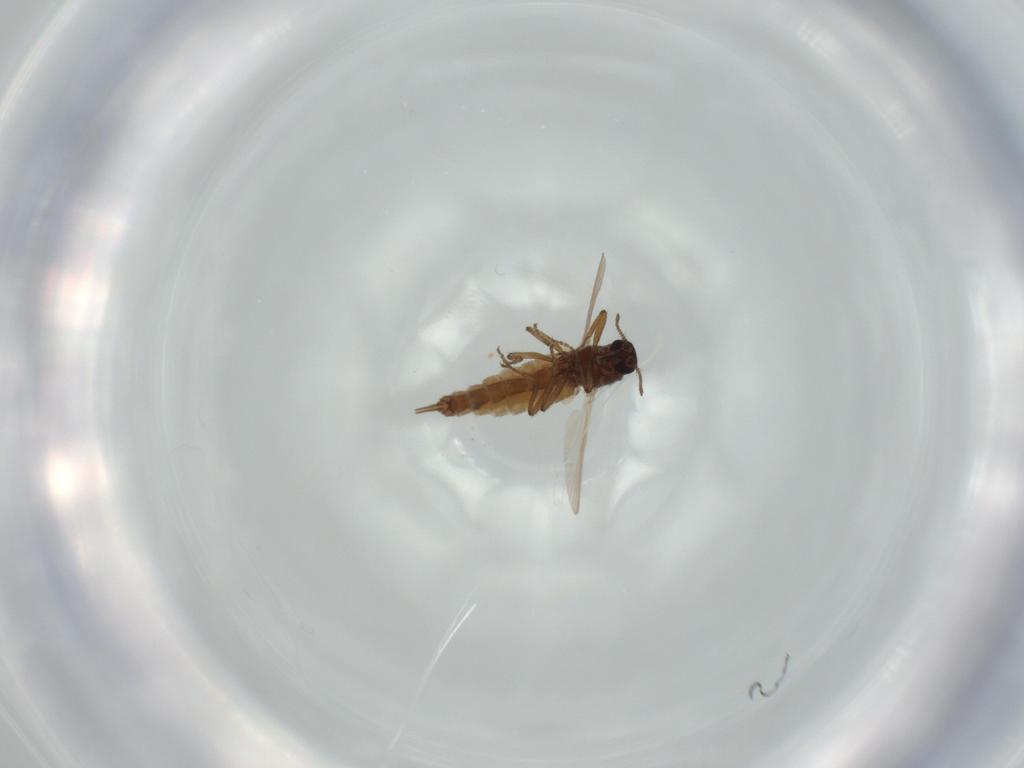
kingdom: Animalia
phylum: Arthropoda
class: Insecta
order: Diptera
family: Ceratopogonidae
